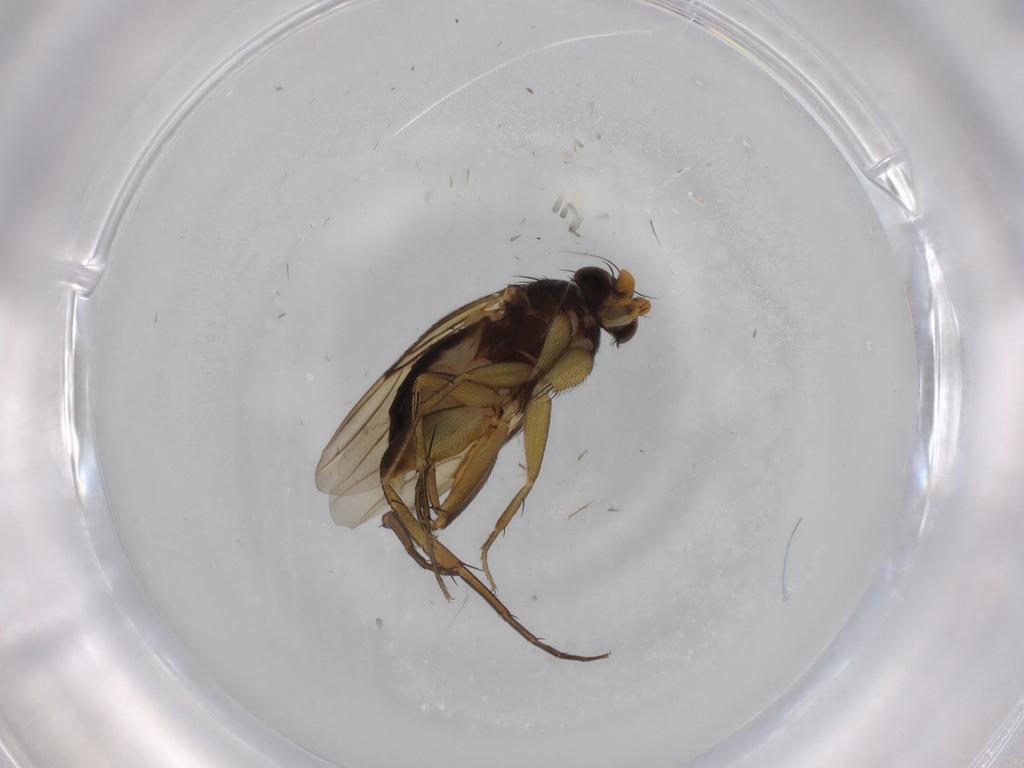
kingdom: Animalia
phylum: Arthropoda
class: Insecta
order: Diptera
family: Phoridae
